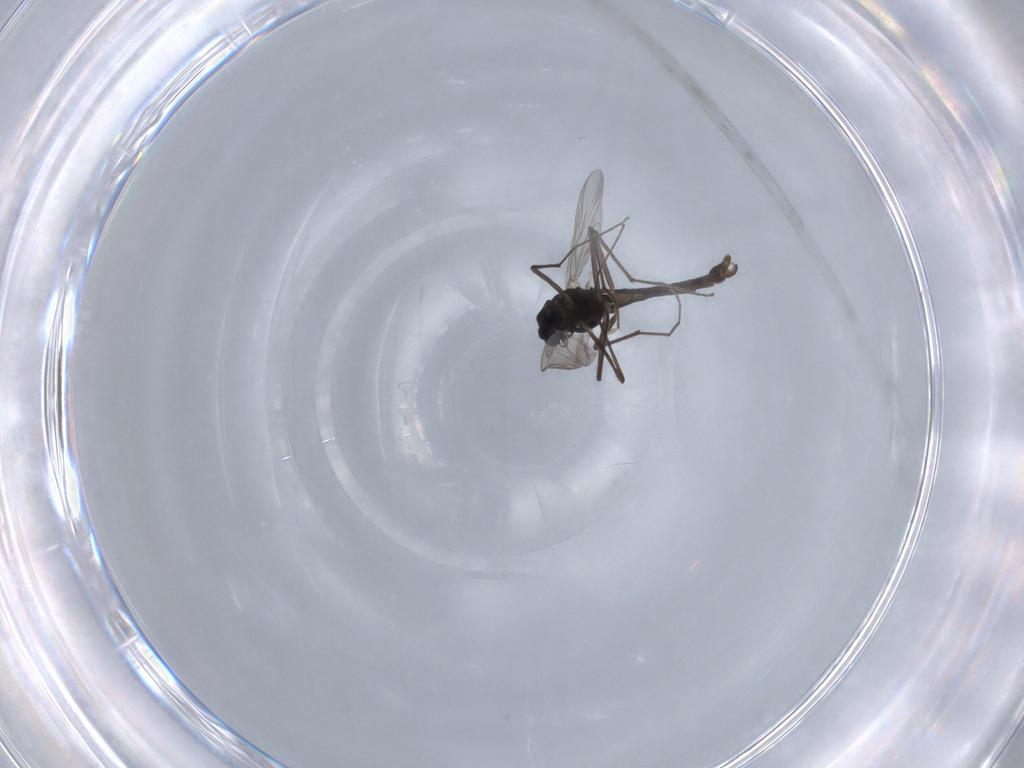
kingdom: Animalia
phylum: Arthropoda
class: Insecta
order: Diptera
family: Chironomidae
